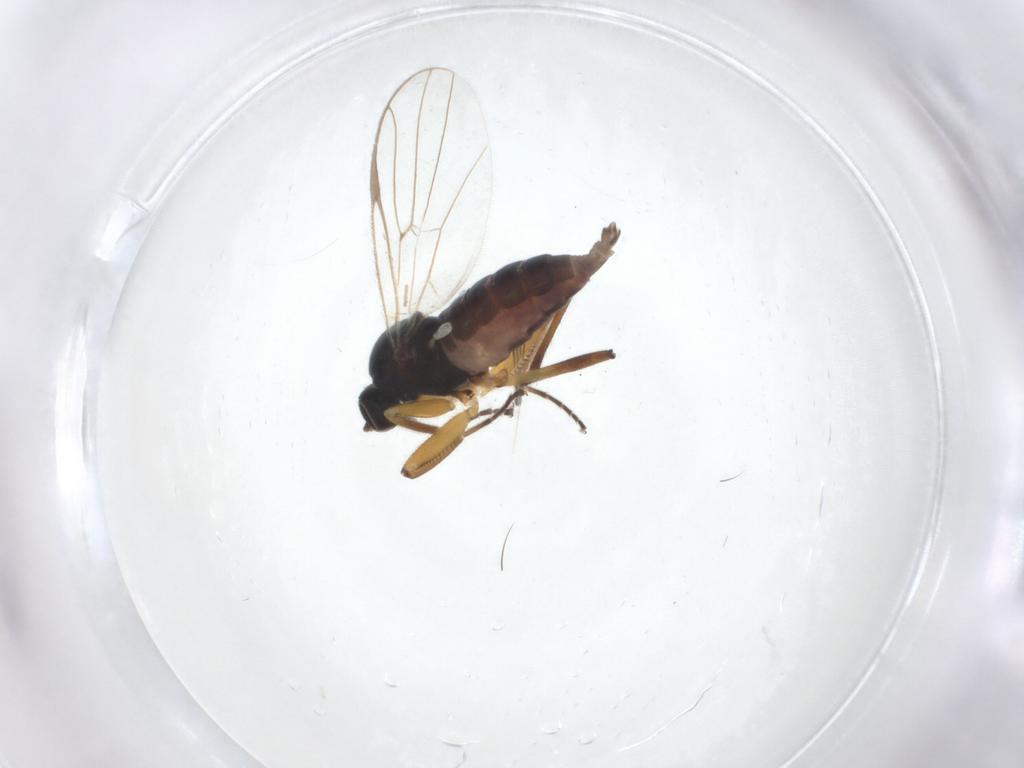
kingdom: Animalia
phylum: Arthropoda
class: Insecta
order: Diptera
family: Hybotidae
